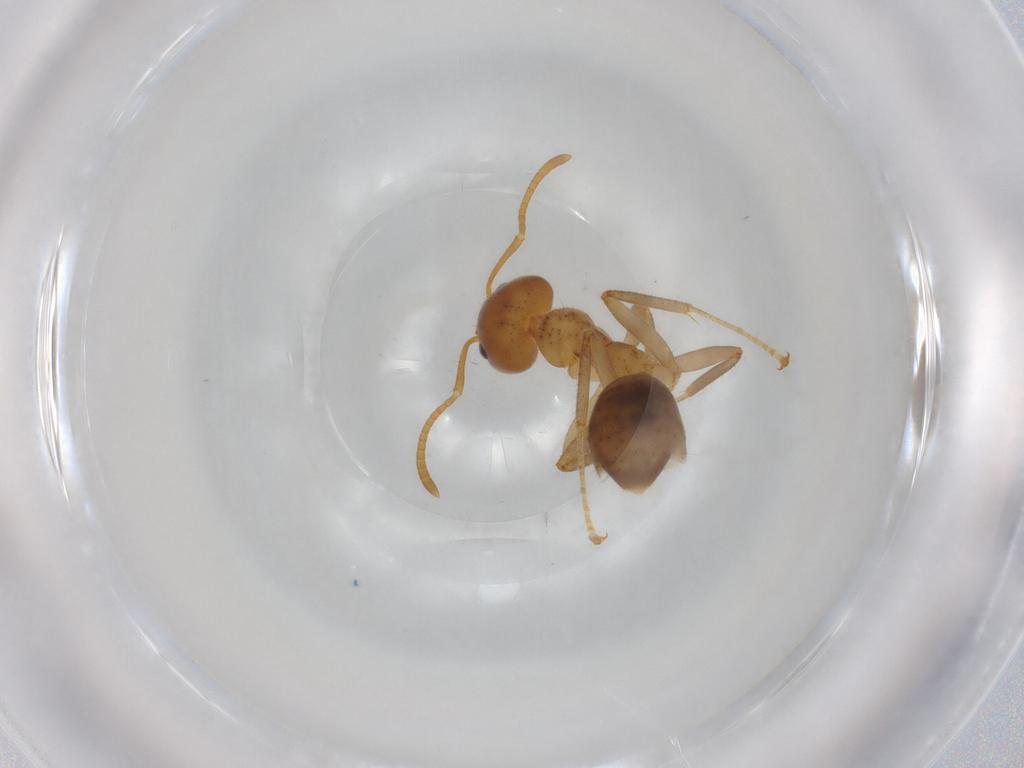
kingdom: Animalia
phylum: Arthropoda
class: Insecta
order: Hymenoptera
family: Formicidae
